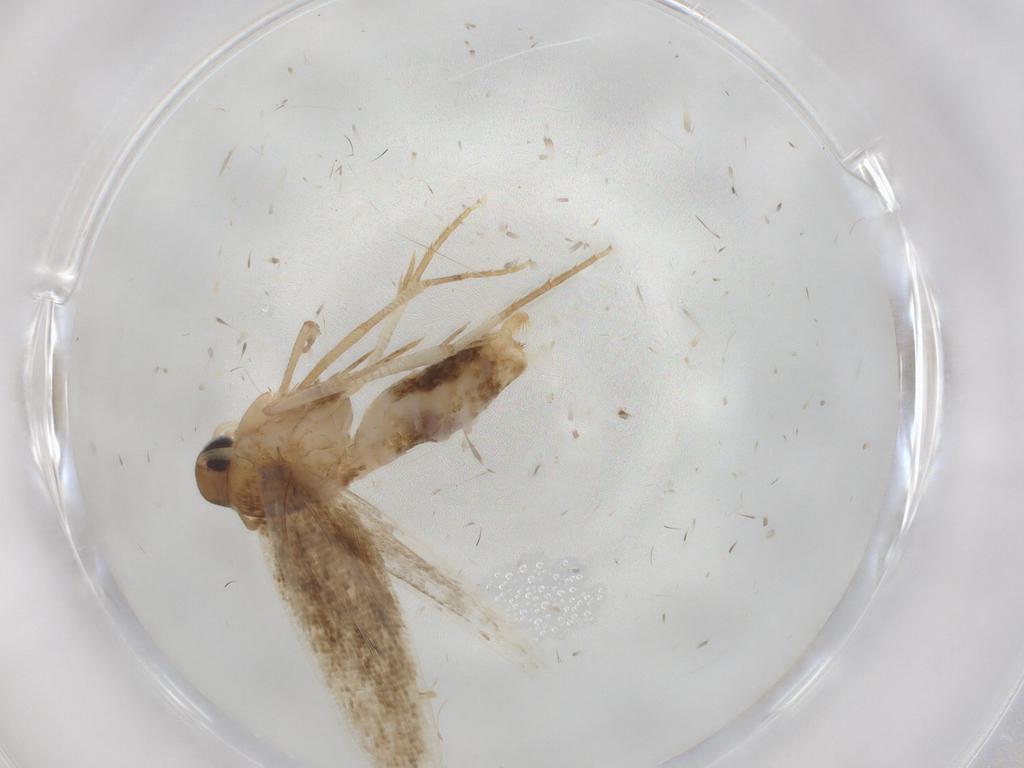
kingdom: Animalia
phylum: Arthropoda
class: Insecta
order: Lepidoptera
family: Cosmopterigidae
